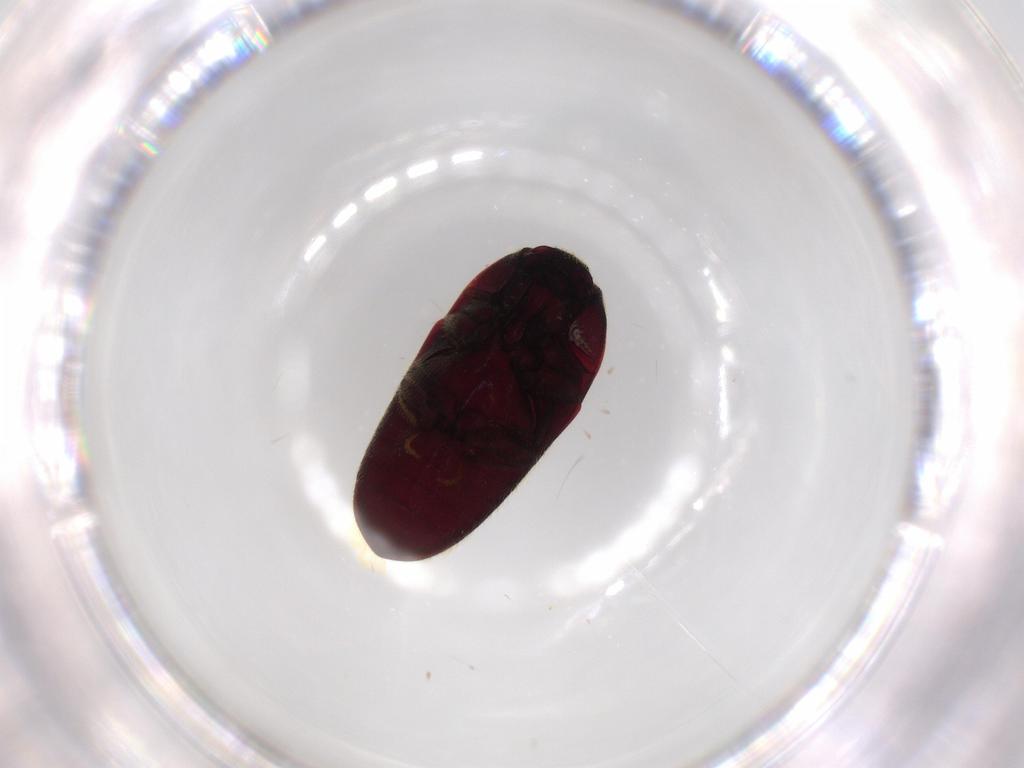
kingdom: Animalia
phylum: Arthropoda
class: Insecta
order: Coleoptera
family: Throscidae
